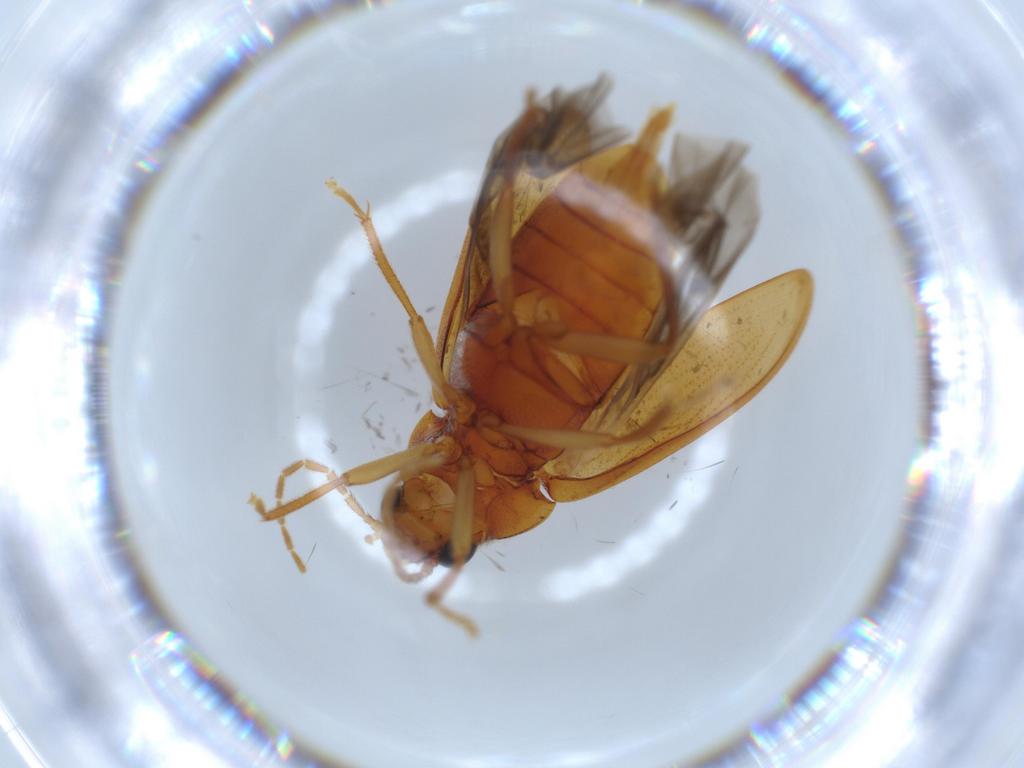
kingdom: Animalia
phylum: Arthropoda
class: Insecta
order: Coleoptera
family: Ptilodactylidae
